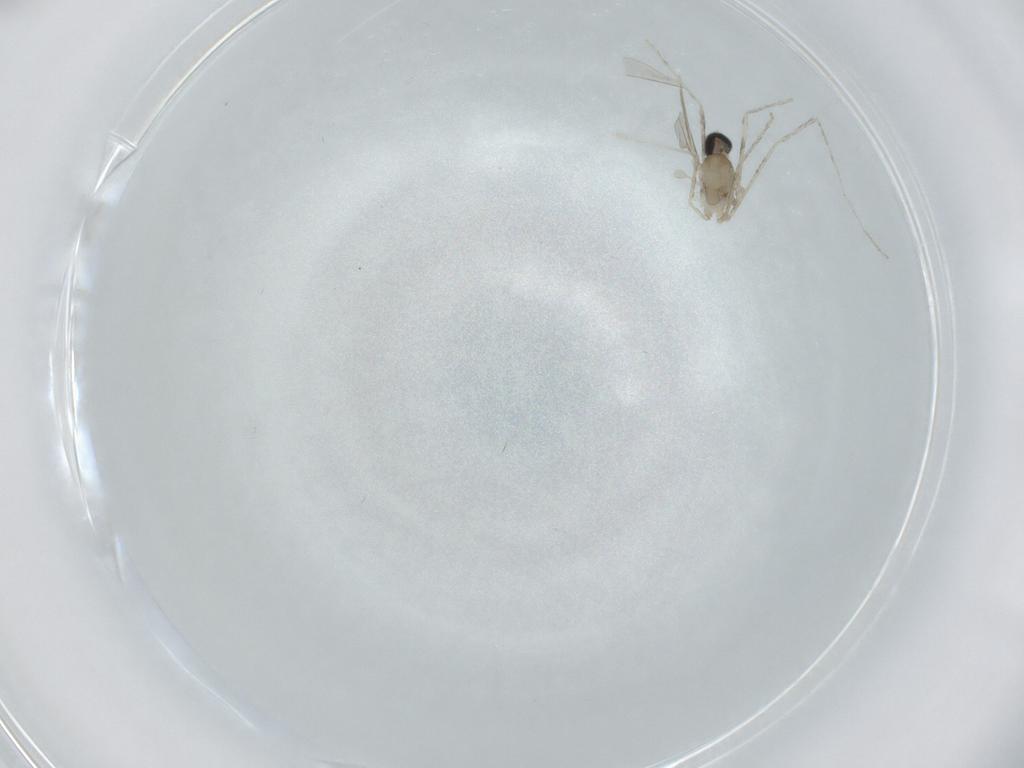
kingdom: Animalia
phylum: Arthropoda
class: Insecta
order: Diptera
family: Cecidomyiidae
